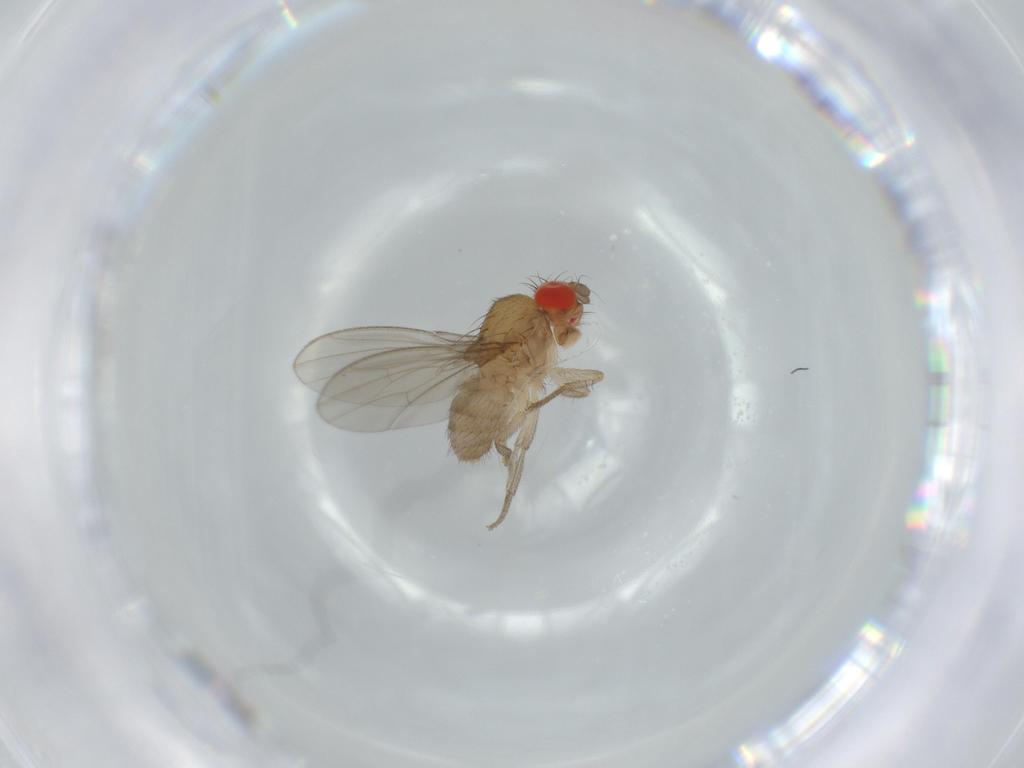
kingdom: Animalia
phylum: Arthropoda
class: Insecta
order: Diptera
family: Drosophilidae
